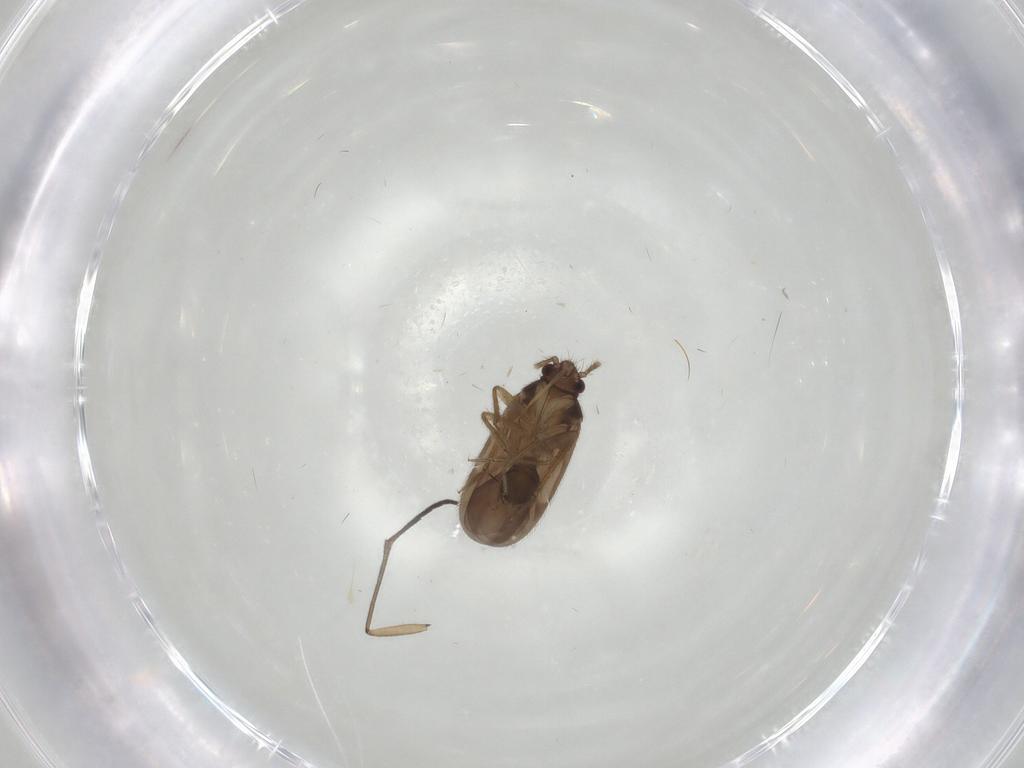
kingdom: Animalia
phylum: Arthropoda
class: Insecta
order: Hemiptera
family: Ceratocombidae
